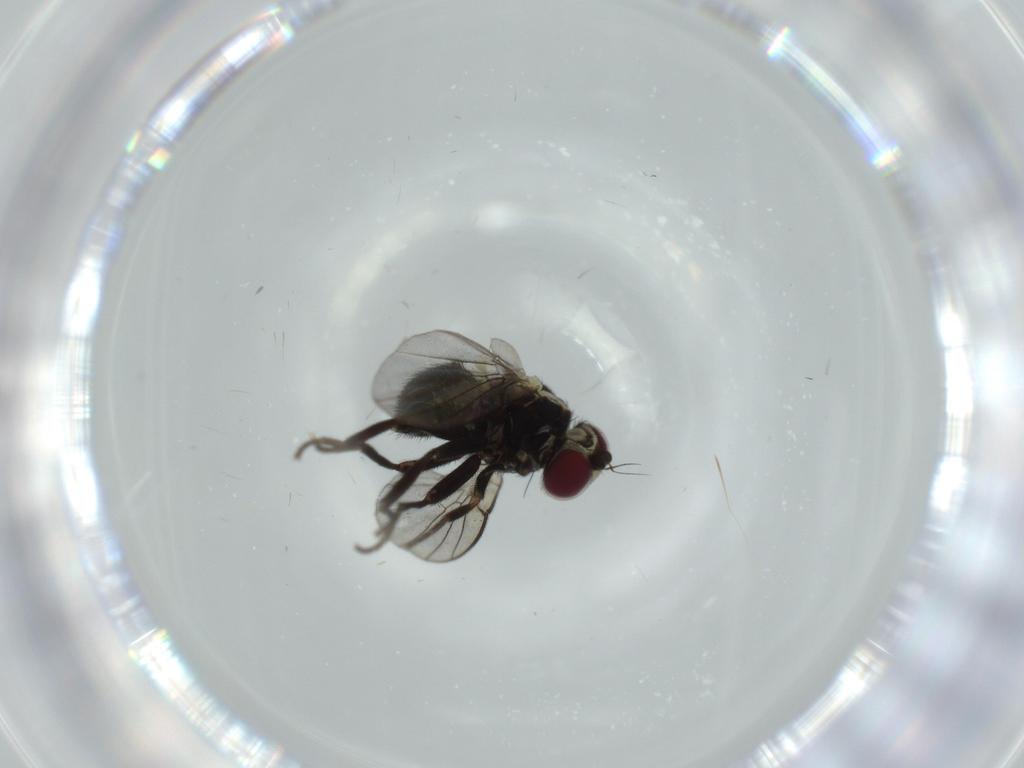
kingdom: Animalia
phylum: Arthropoda
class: Insecta
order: Diptera
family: Agromyzidae
